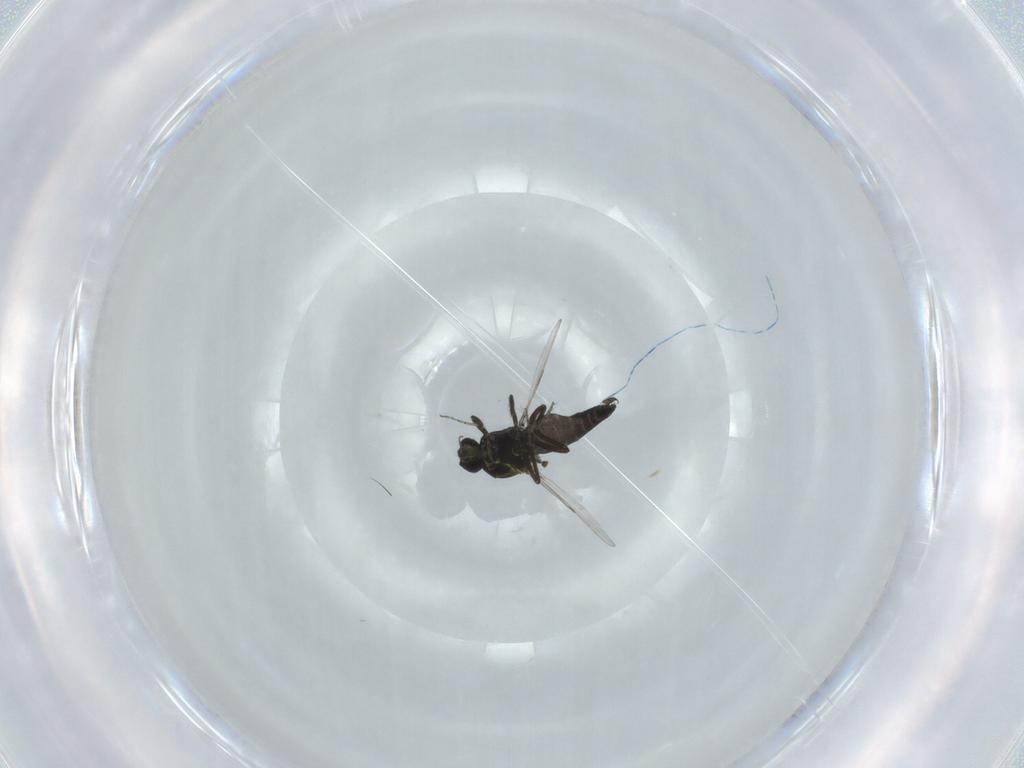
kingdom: Animalia
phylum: Arthropoda
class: Insecta
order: Diptera
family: Ceratopogonidae
